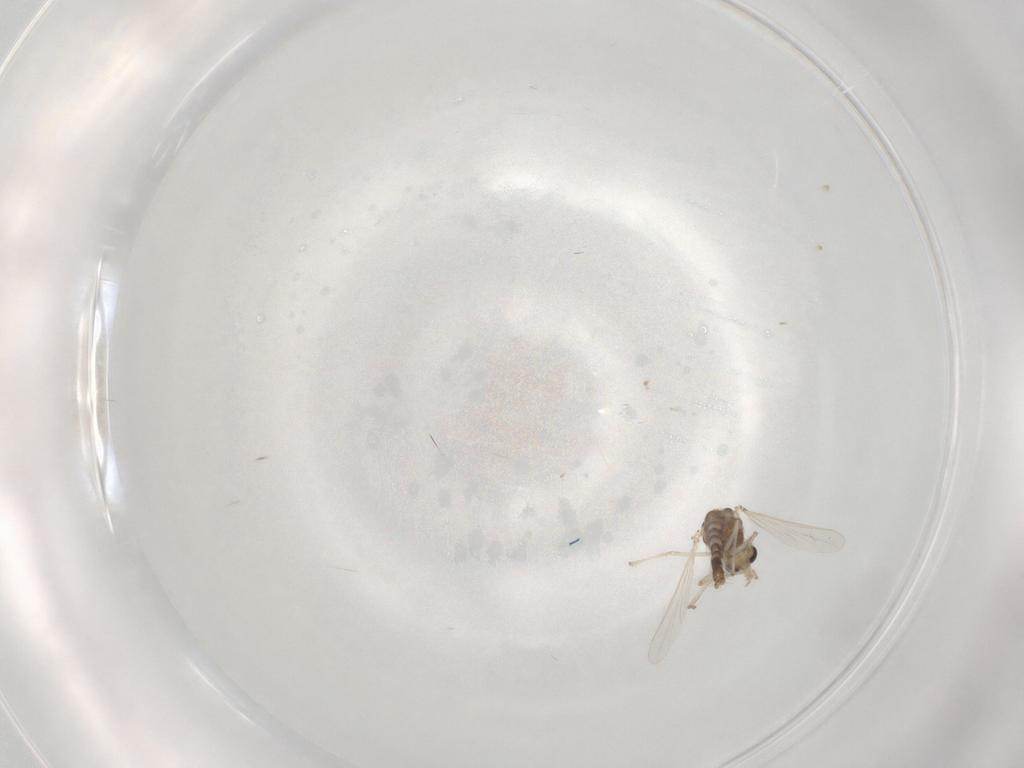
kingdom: Animalia
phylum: Arthropoda
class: Insecta
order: Diptera
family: Chironomidae
